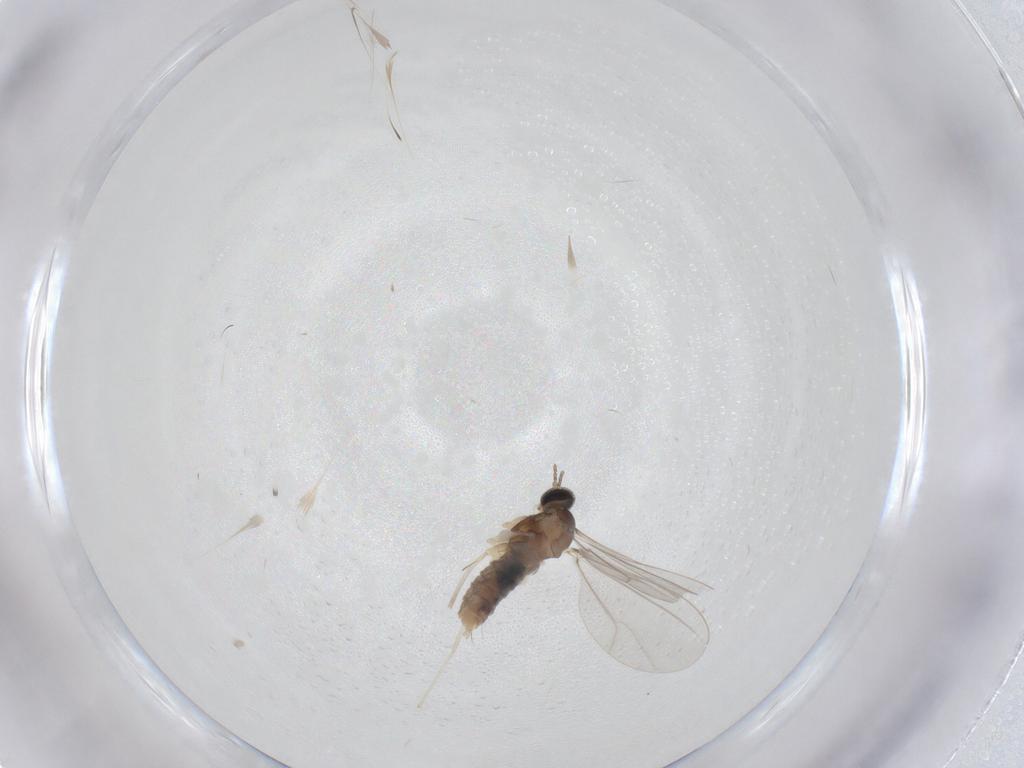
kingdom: Animalia
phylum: Arthropoda
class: Insecta
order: Diptera
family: Cecidomyiidae
